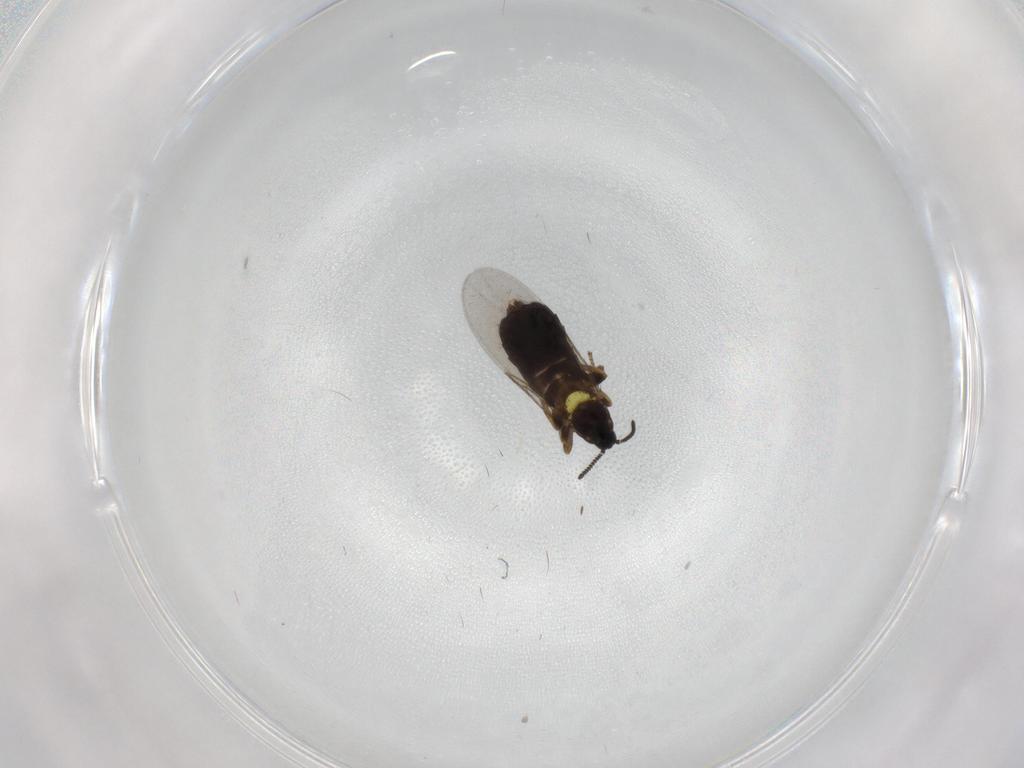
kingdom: Animalia
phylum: Arthropoda
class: Insecta
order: Diptera
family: Scatopsidae
